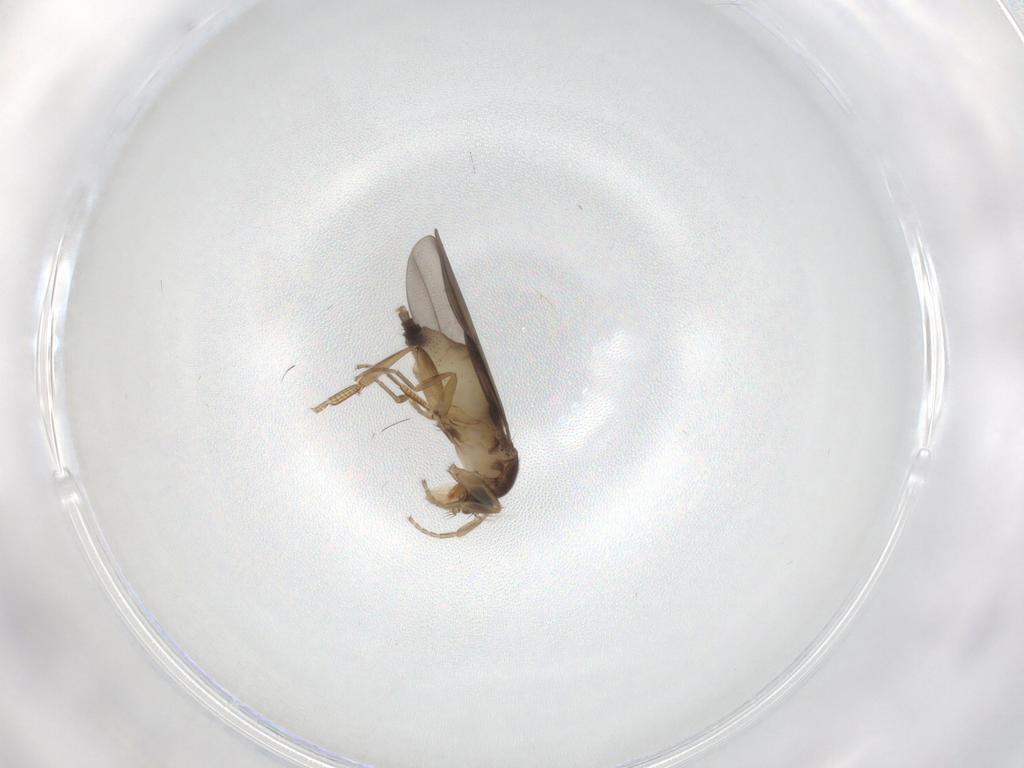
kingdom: Animalia
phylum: Arthropoda
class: Insecta
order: Diptera
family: Phoridae
